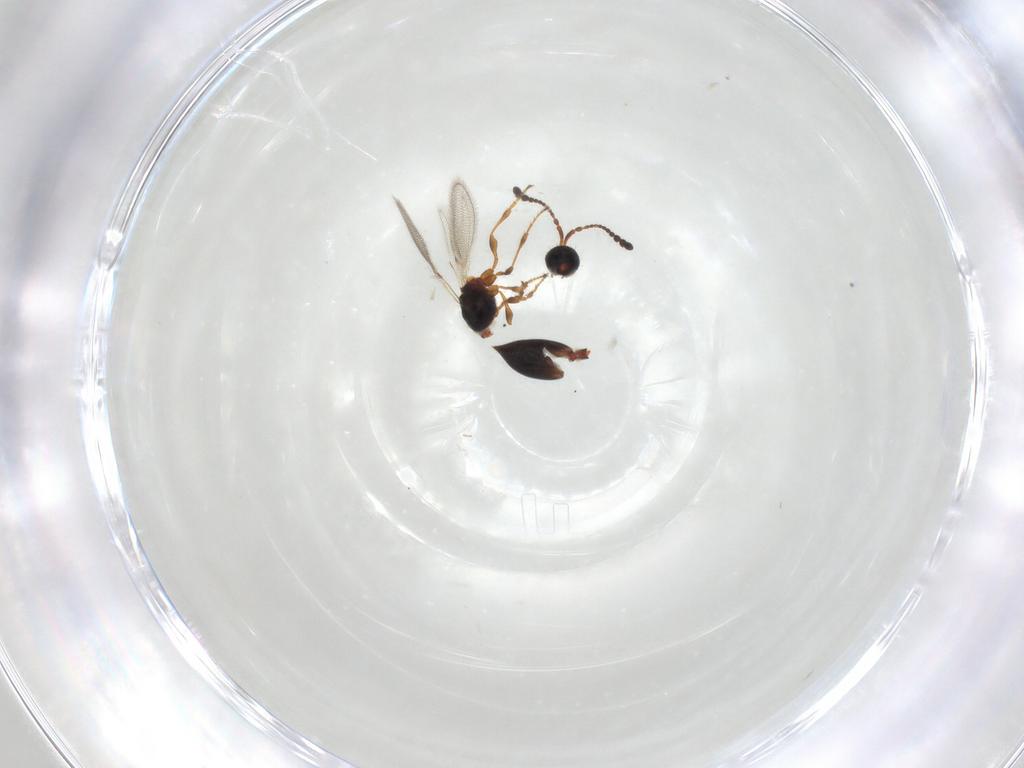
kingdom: Animalia
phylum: Arthropoda
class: Insecta
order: Hymenoptera
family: Diapriidae
